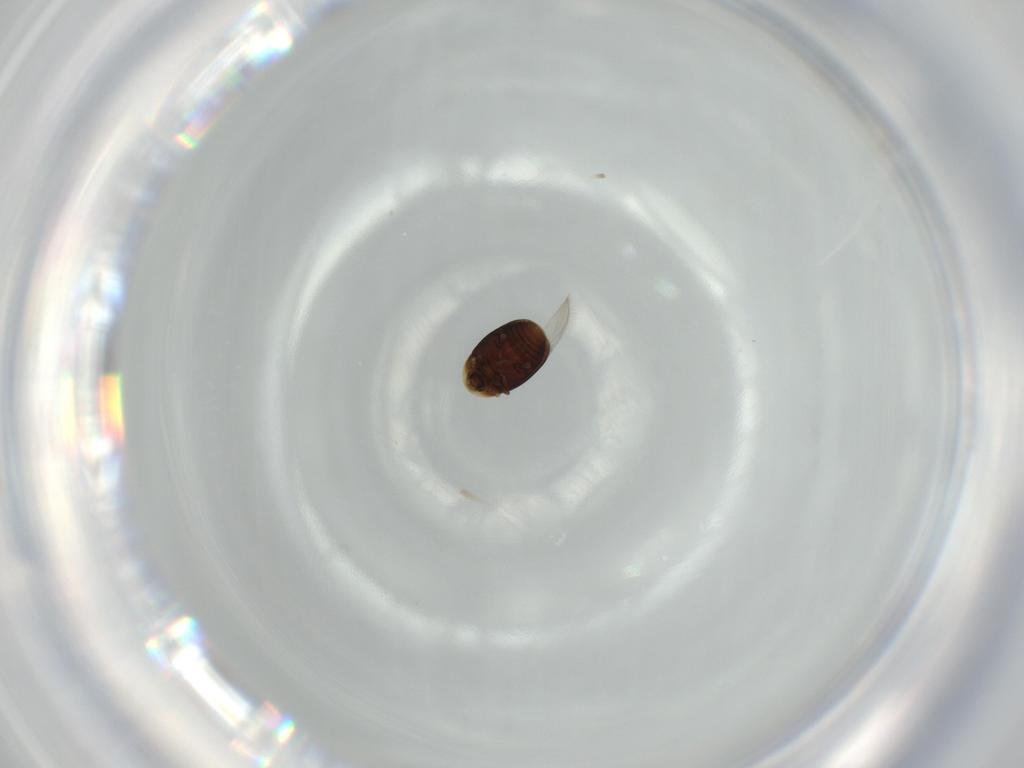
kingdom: Animalia
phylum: Arthropoda
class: Insecta
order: Coleoptera
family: Corylophidae
